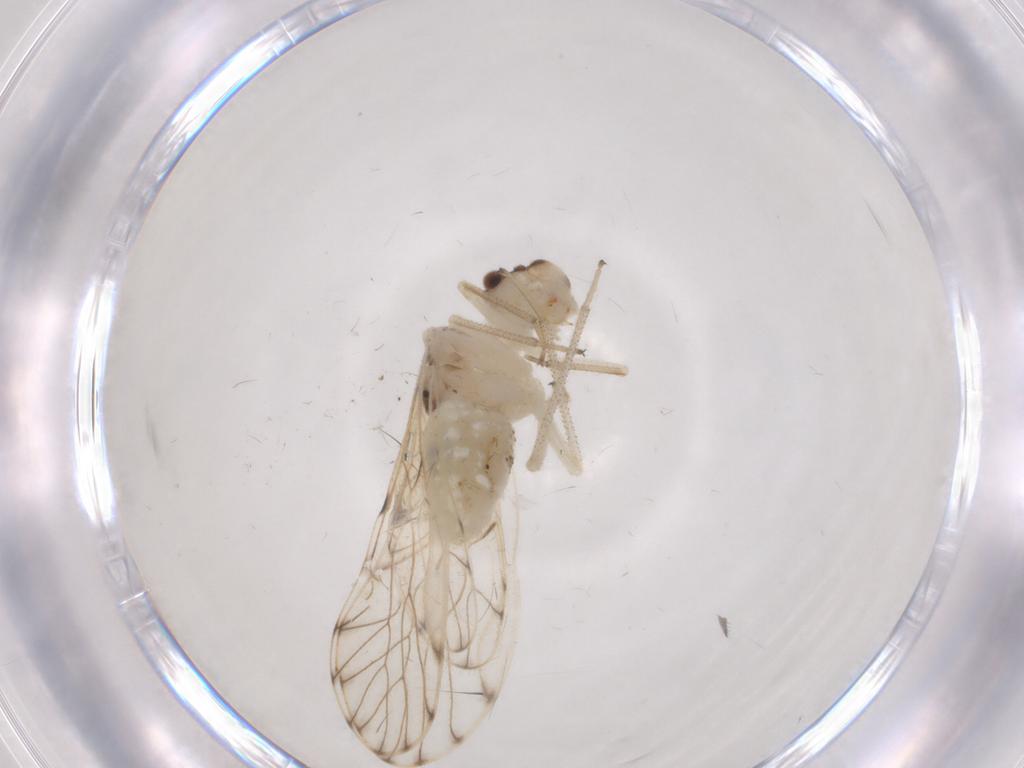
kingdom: Animalia
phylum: Arthropoda
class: Insecta
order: Psocodea
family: Philotarsidae
